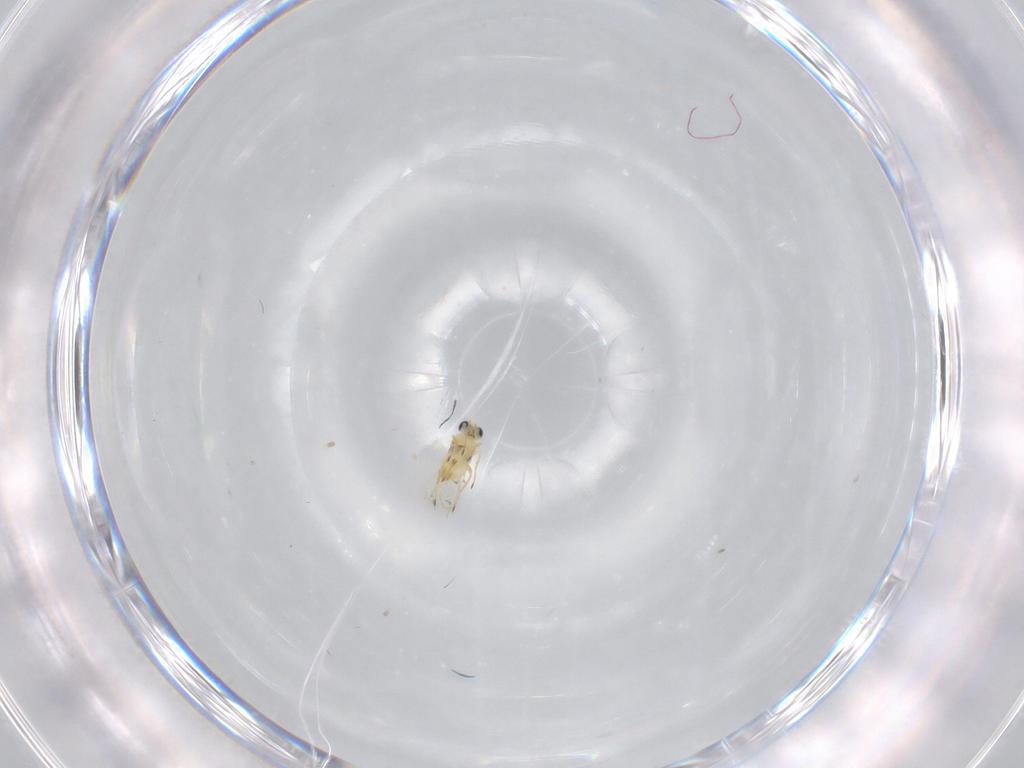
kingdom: Animalia
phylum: Arthropoda
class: Insecta
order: Hymenoptera
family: Trichogrammatidae
